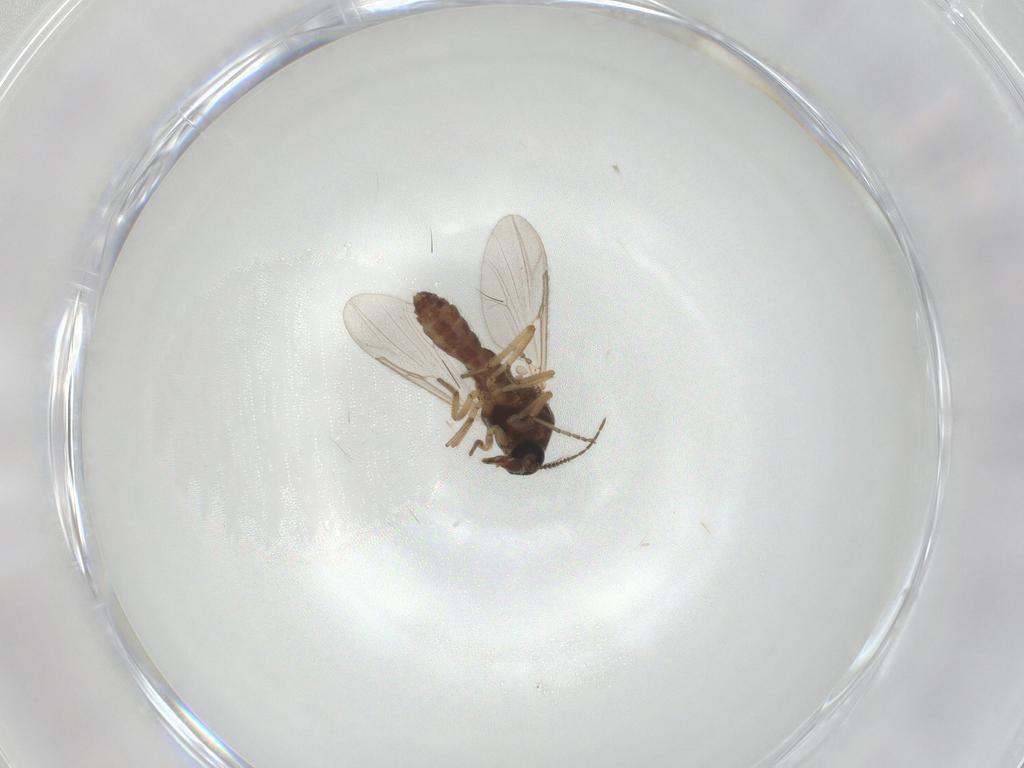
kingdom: Animalia
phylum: Arthropoda
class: Insecta
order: Diptera
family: Ceratopogonidae
